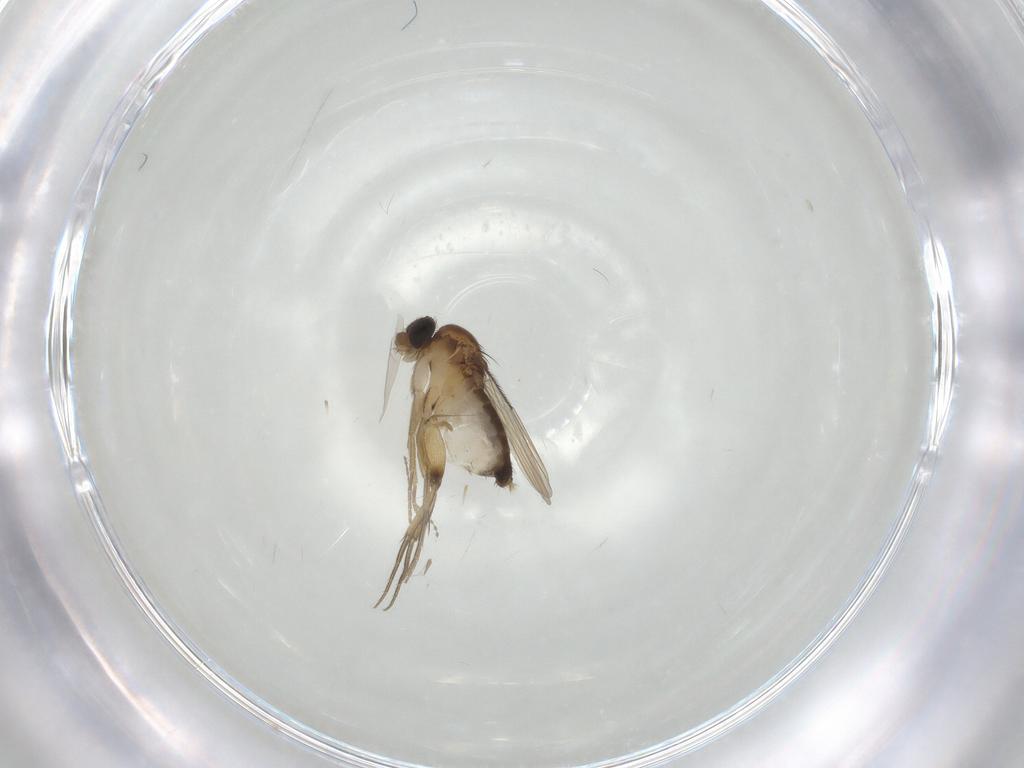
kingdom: Animalia
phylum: Arthropoda
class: Insecta
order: Diptera
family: Phoridae
